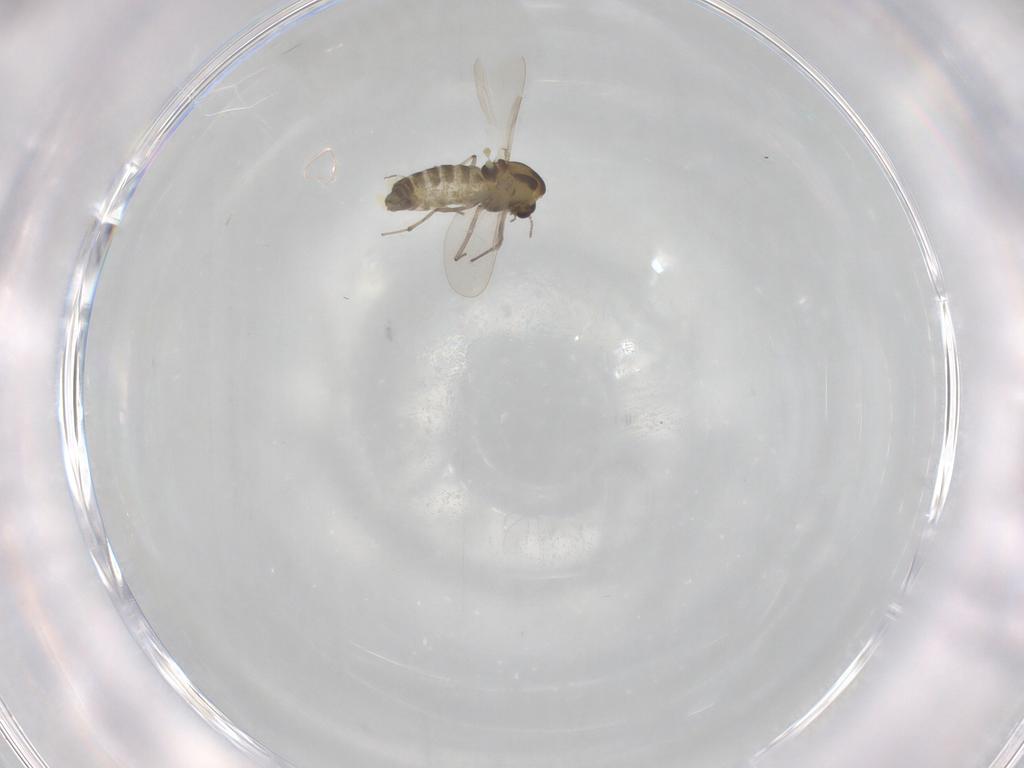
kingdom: Animalia
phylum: Arthropoda
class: Insecta
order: Diptera
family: Chironomidae
